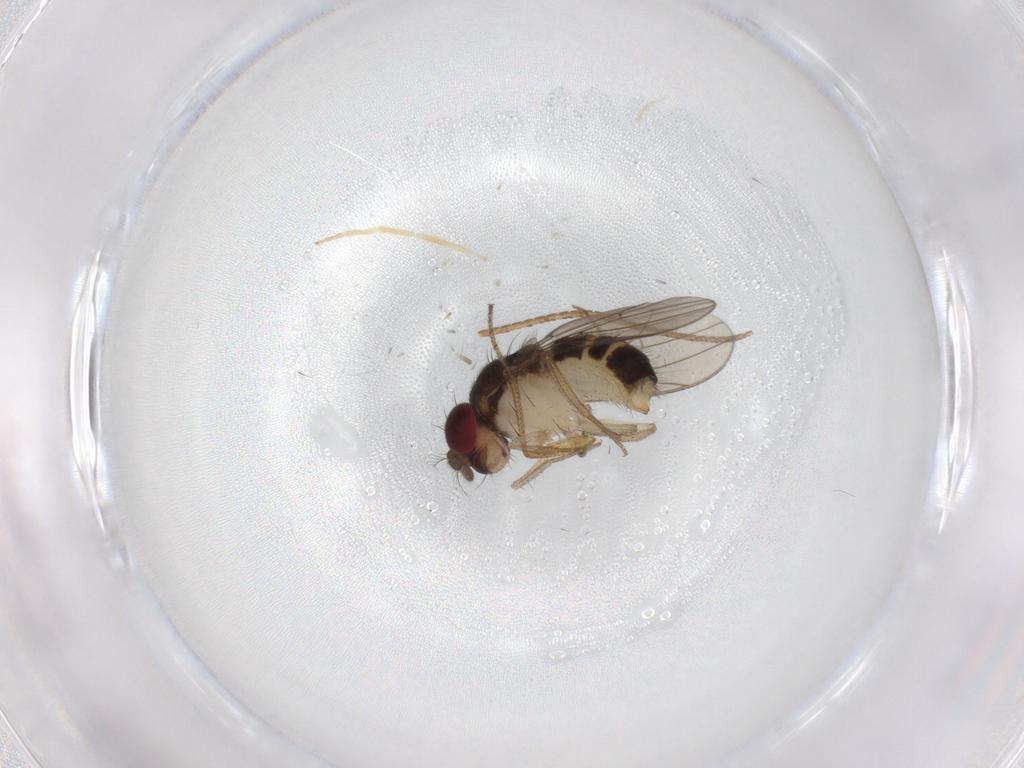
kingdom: Animalia
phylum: Arthropoda
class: Insecta
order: Diptera
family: Drosophilidae
